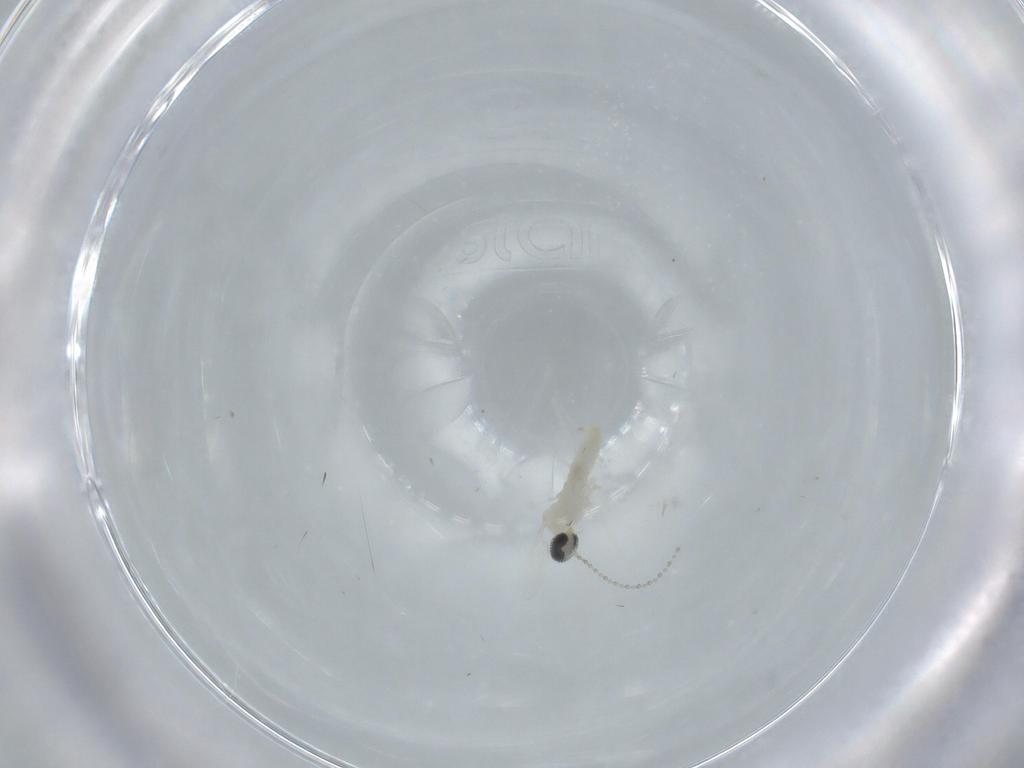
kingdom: Animalia
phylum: Arthropoda
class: Insecta
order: Diptera
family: Cecidomyiidae
